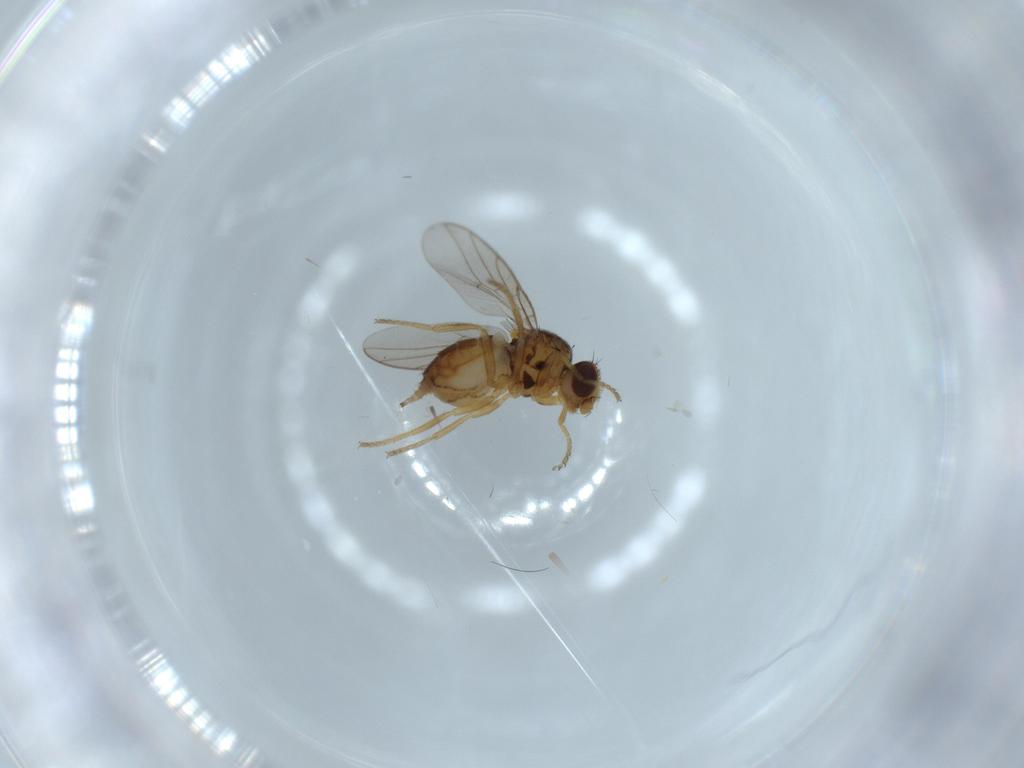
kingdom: Animalia
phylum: Arthropoda
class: Insecta
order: Diptera
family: Chloropidae
